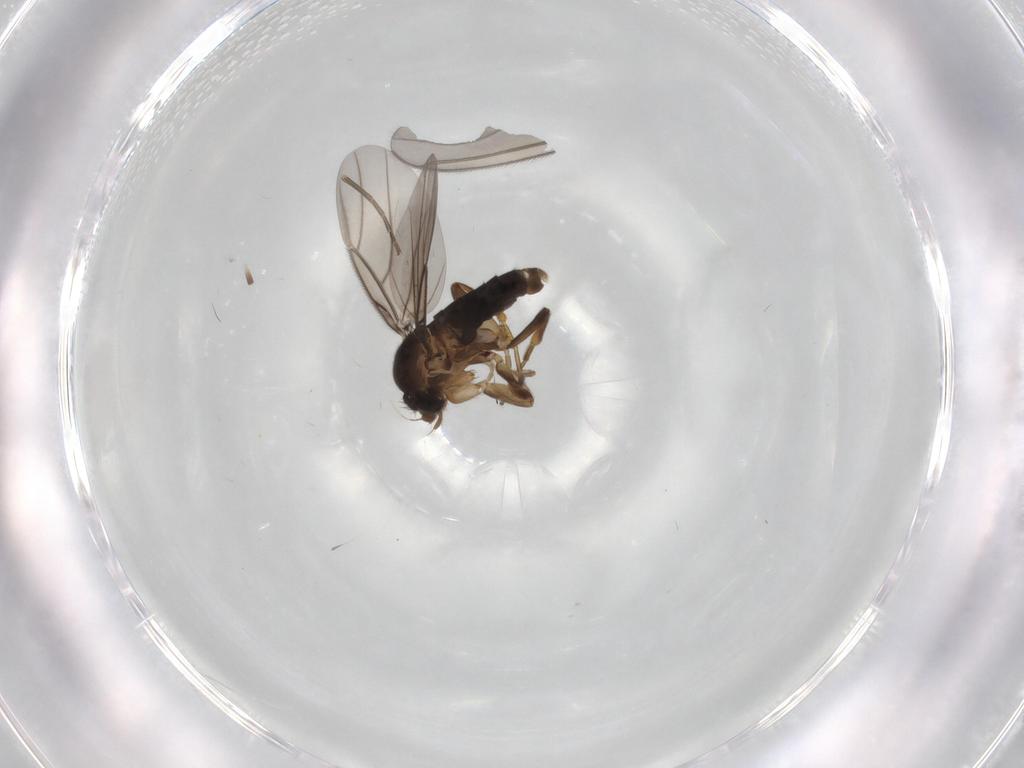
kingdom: Animalia
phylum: Arthropoda
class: Insecta
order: Diptera
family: Sciaridae
